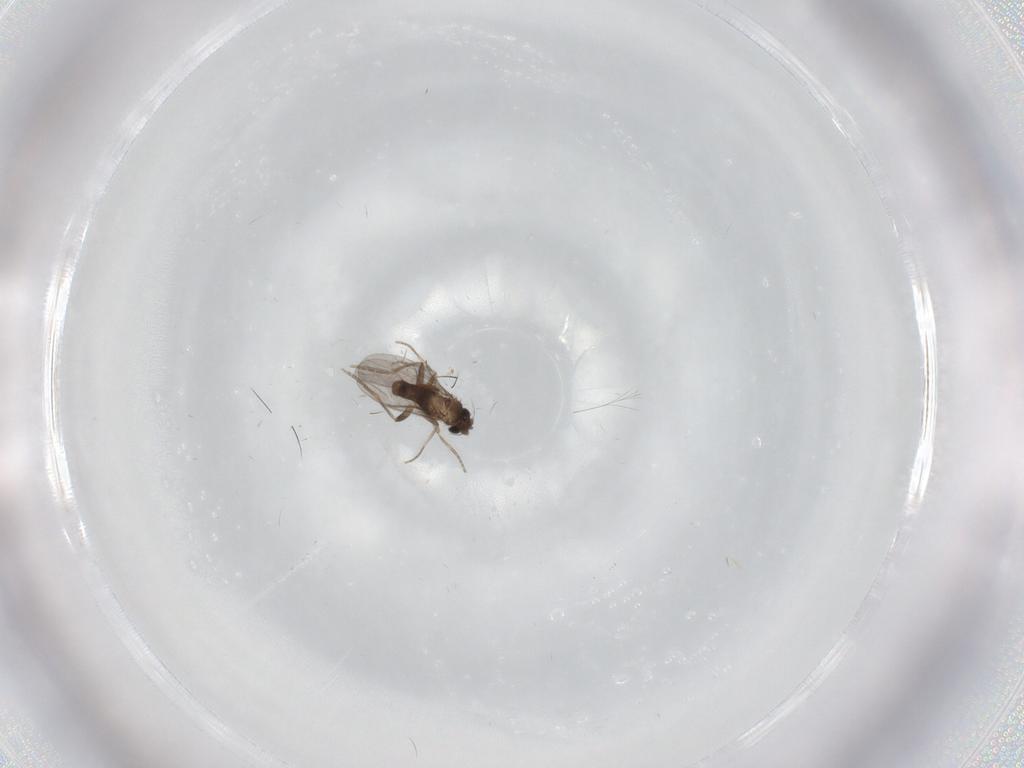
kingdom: Animalia
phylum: Arthropoda
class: Insecta
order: Diptera
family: Ceratopogonidae
